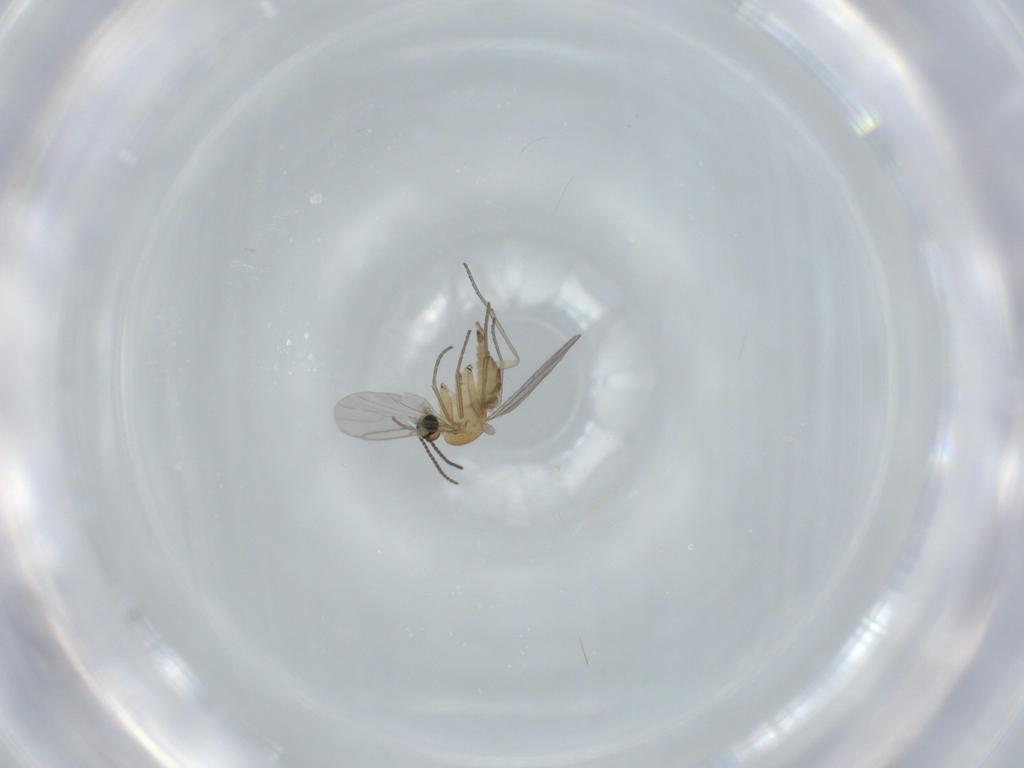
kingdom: Animalia
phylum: Arthropoda
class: Insecta
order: Diptera
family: Sciaridae
